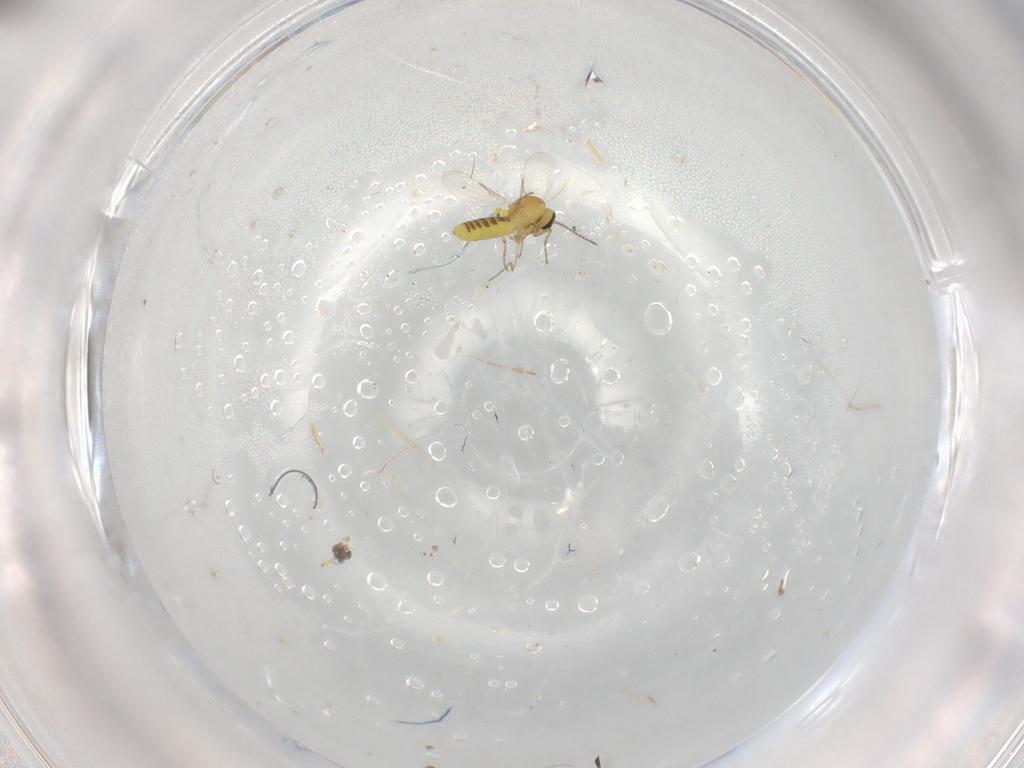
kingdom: Animalia
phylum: Arthropoda
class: Insecta
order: Diptera
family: Ceratopogonidae
